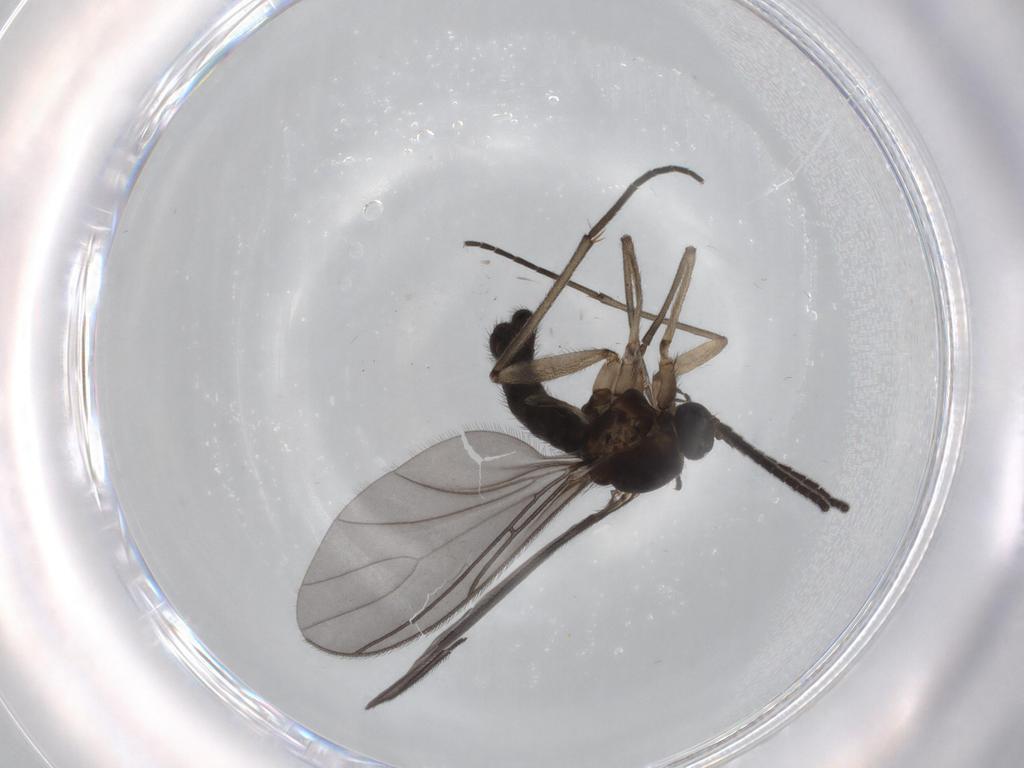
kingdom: Animalia
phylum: Arthropoda
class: Insecta
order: Diptera
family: Sciaridae
